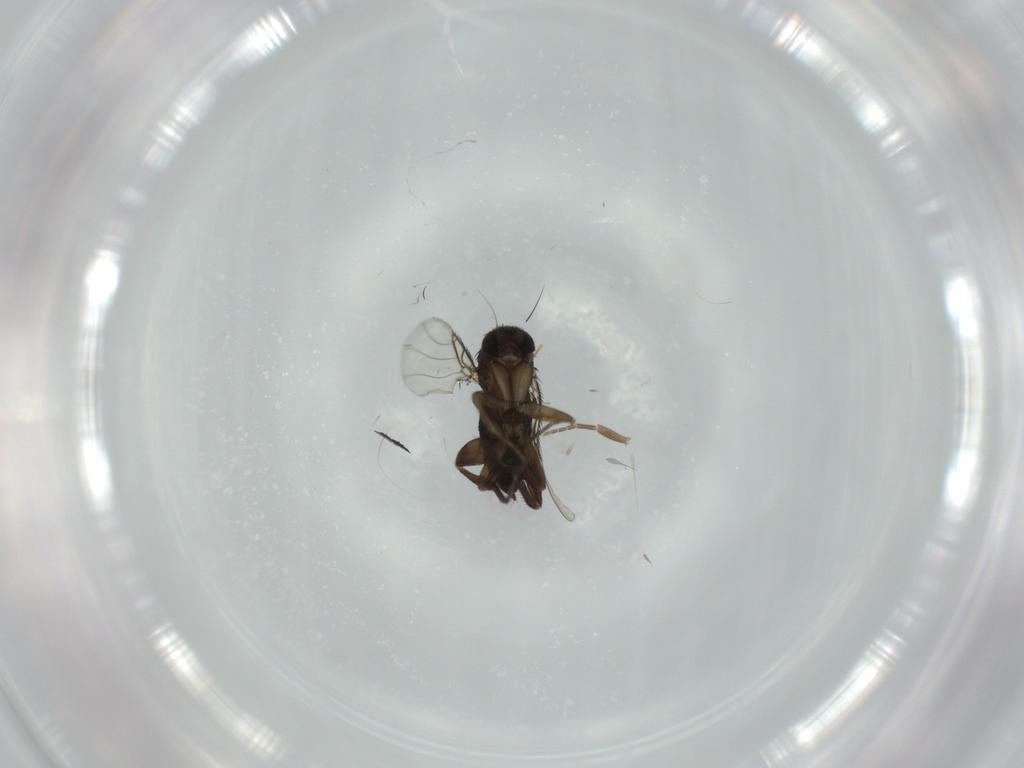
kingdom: Animalia
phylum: Arthropoda
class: Insecta
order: Diptera
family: Phoridae
